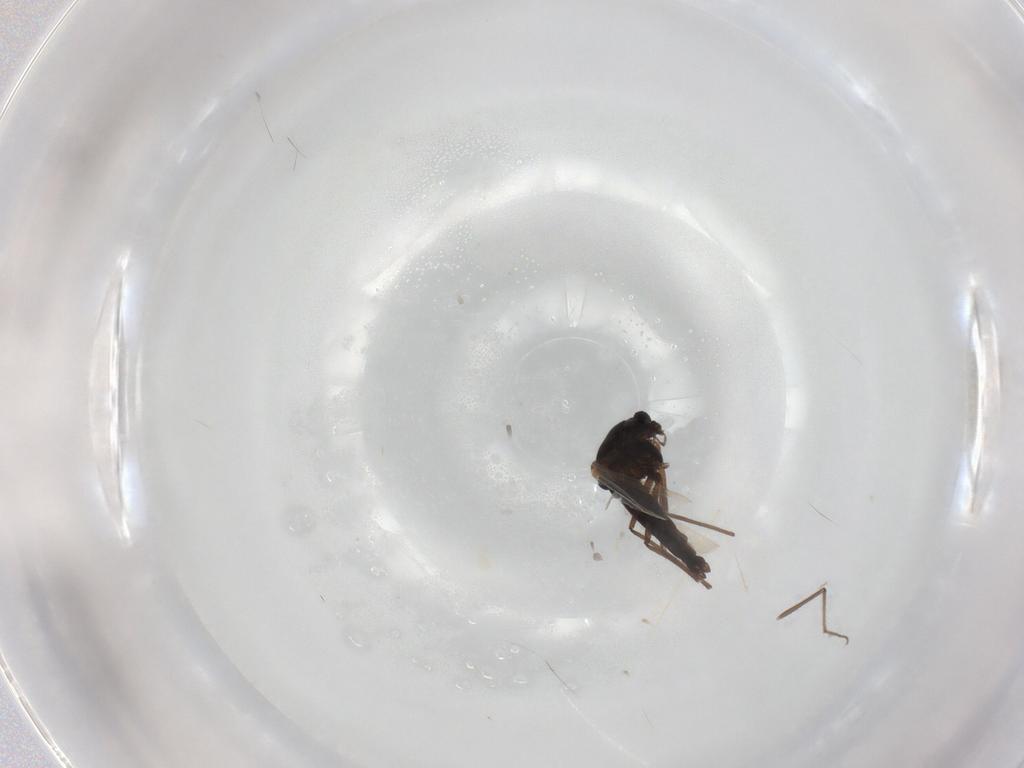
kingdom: Animalia
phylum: Arthropoda
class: Insecta
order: Diptera
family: Chironomidae
